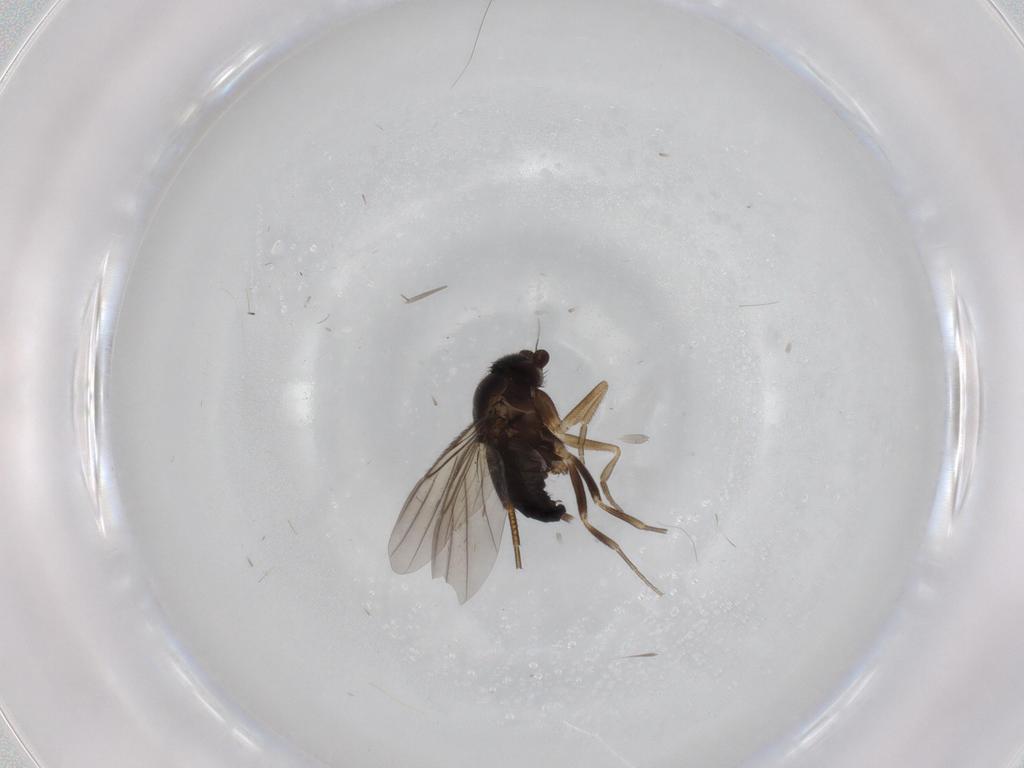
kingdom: Animalia
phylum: Arthropoda
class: Insecta
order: Diptera
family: Phoridae
